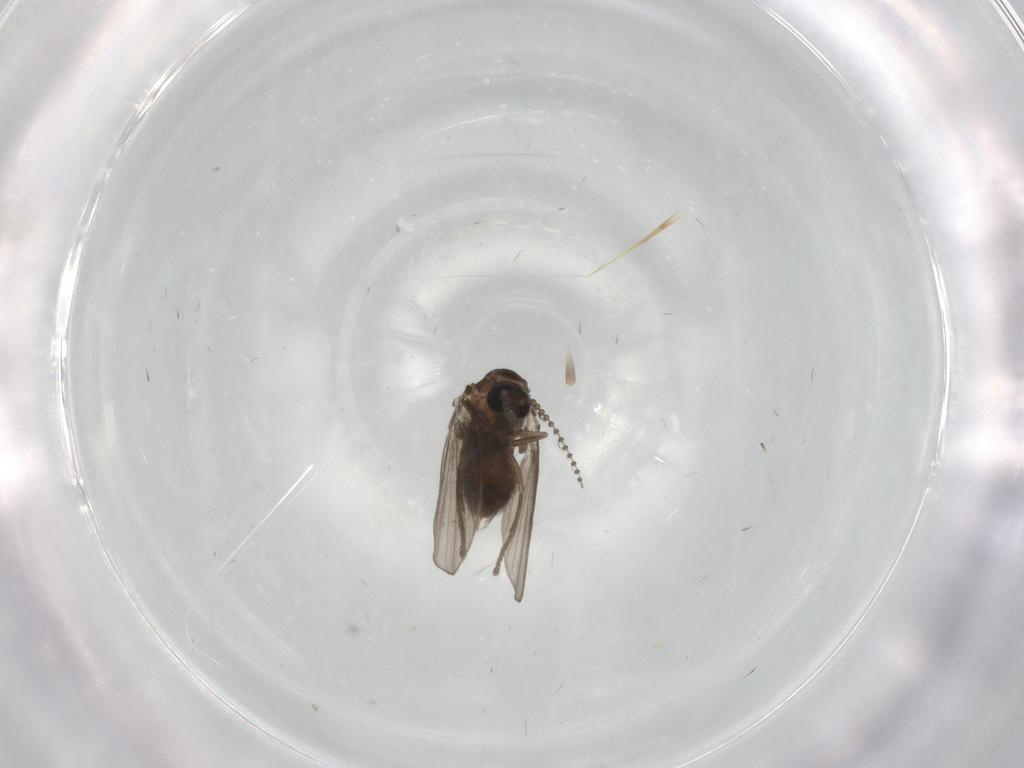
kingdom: Animalia
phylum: Arthropoda
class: Insecta
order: Diptera
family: Psychodidae
